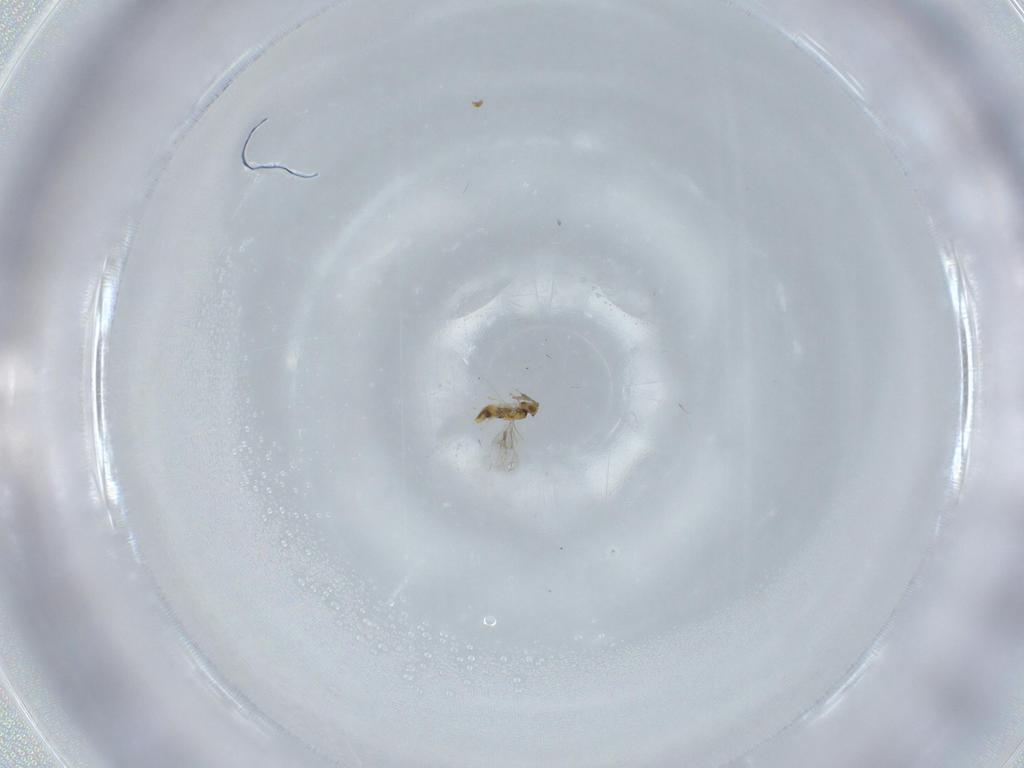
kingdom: Animalia
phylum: Arthropoda
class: Insecta
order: Hymenoptera
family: Aphelinidae
